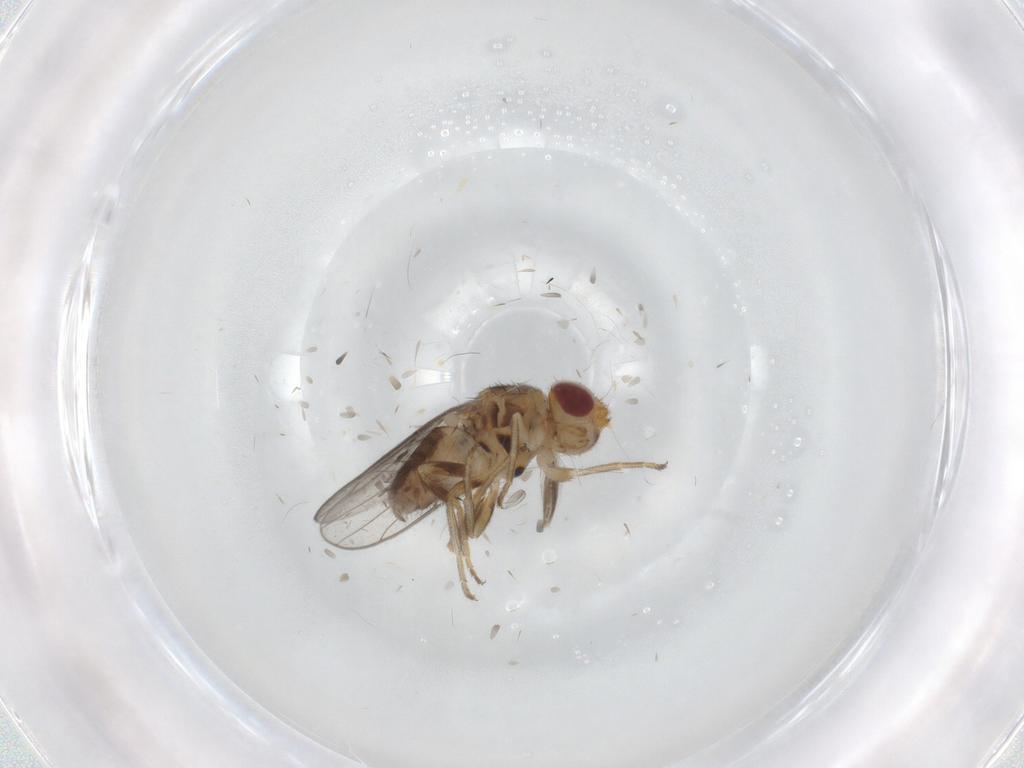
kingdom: Animalia
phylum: Arthropoda
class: Insecta
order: Diptera
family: Chloropidae
